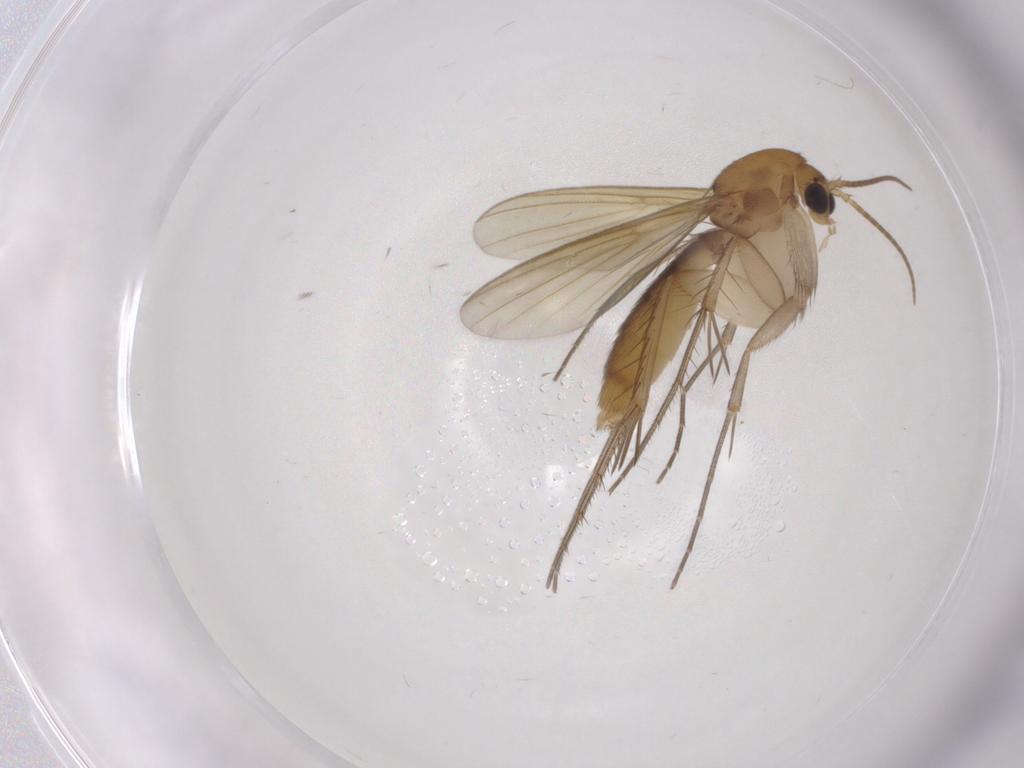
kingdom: Animalia
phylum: Arthropoda
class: Insecta
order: Diptera
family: Mycetophilidae
